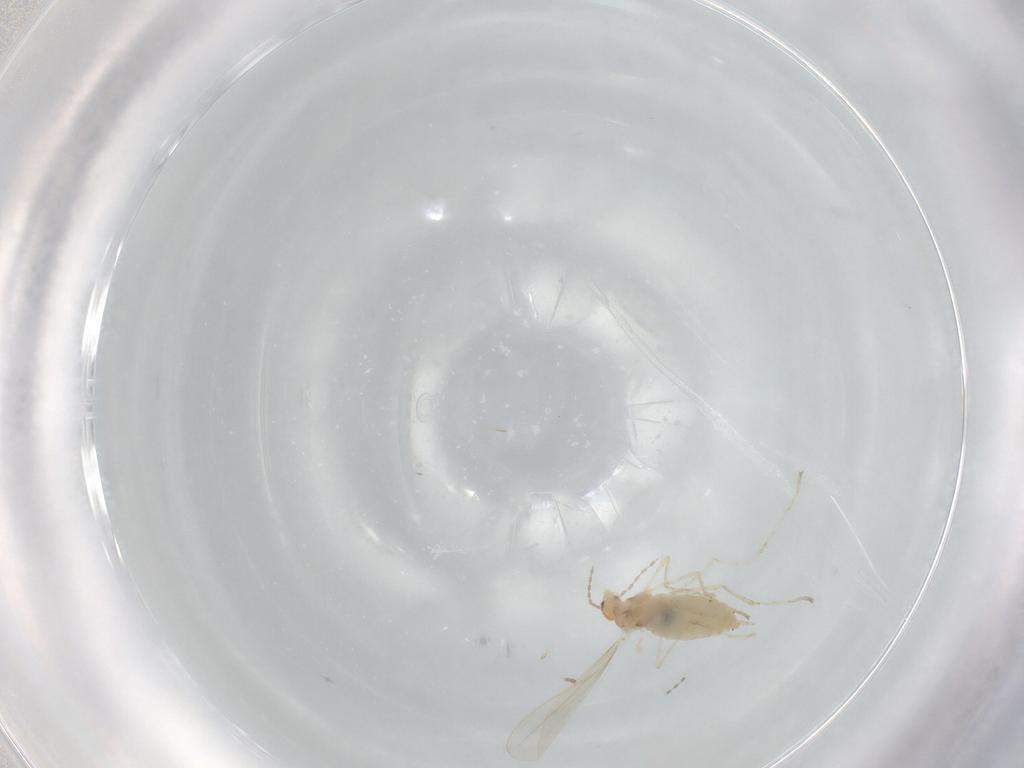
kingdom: Animalia
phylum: Arthropoda
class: Insecta
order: Diptera
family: Cecidomyiidae
